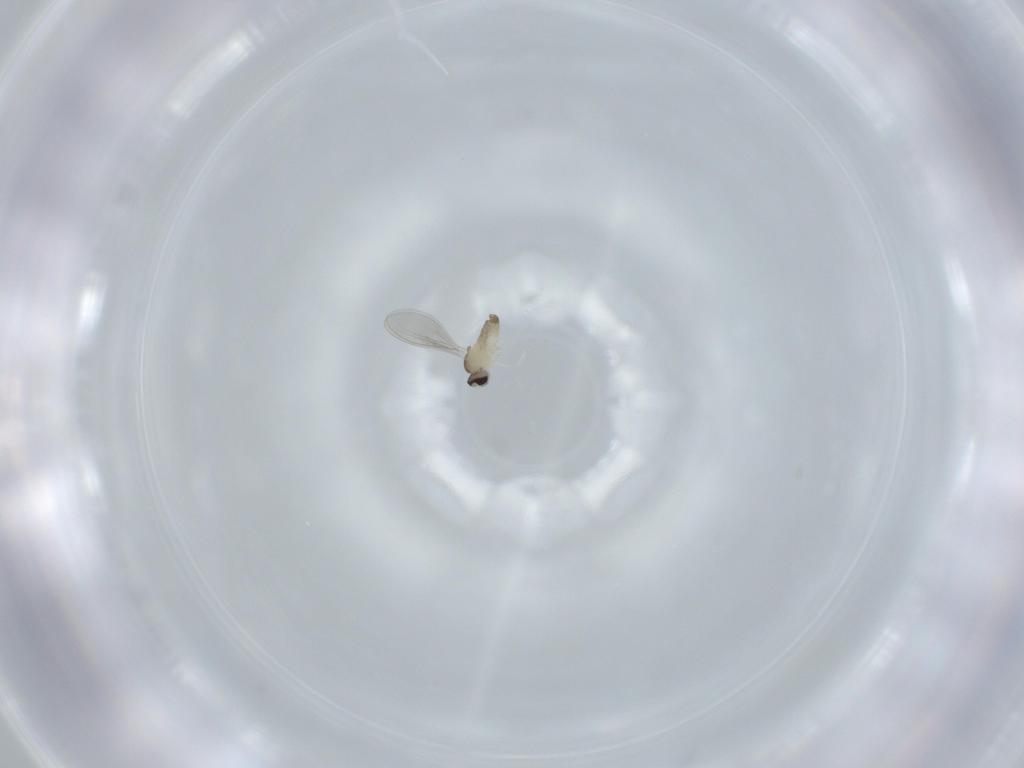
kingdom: Animalia
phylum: Arthropoda
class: Insecta
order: Diptera
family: Cecidomyiidae
